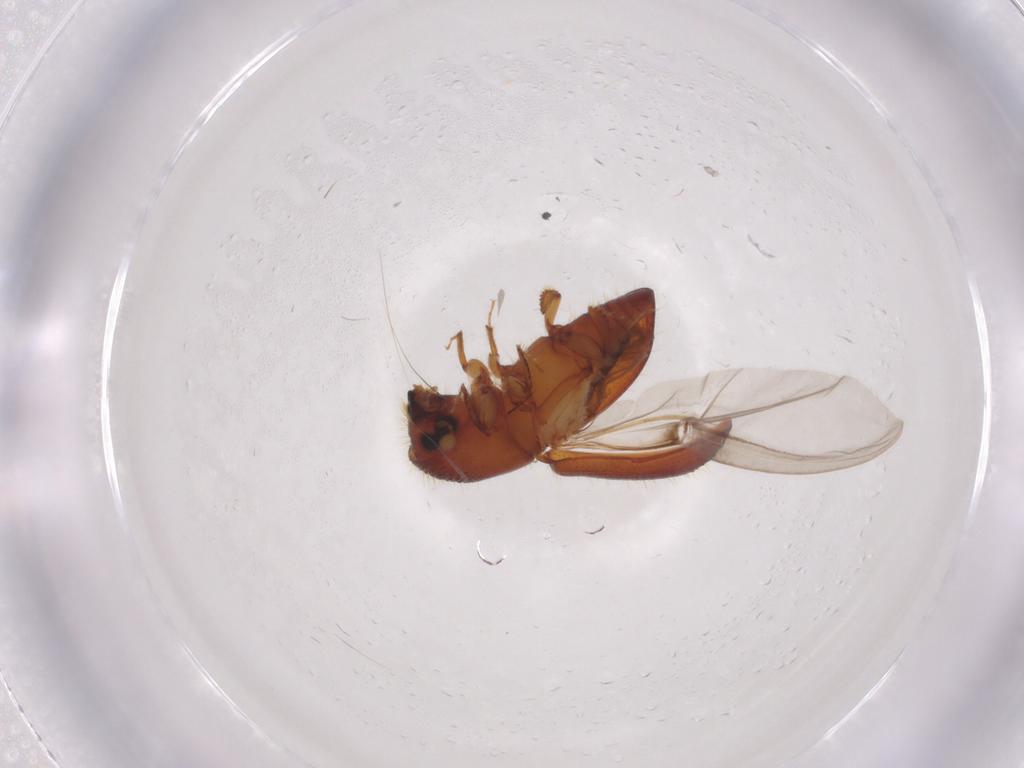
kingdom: Animalia
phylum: Arthropoda
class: Insecta
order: Coleoptera
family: Curculionidae
